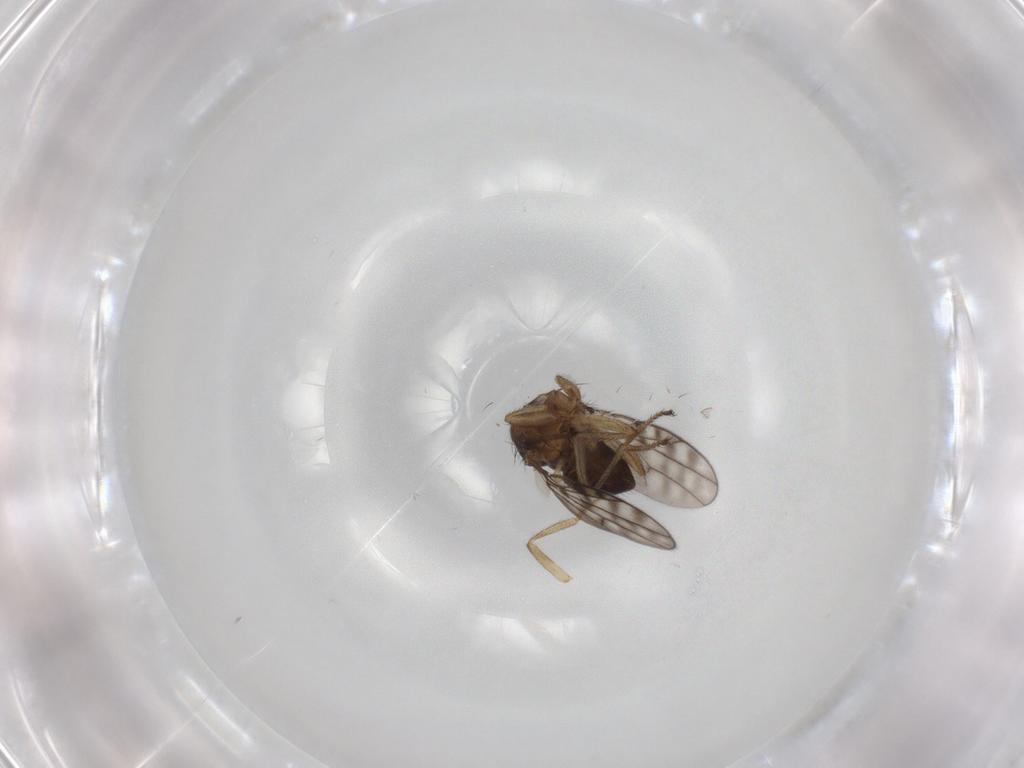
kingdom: Animalia
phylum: Arthropoda
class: Insecta
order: Diptera
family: Ephydridae
